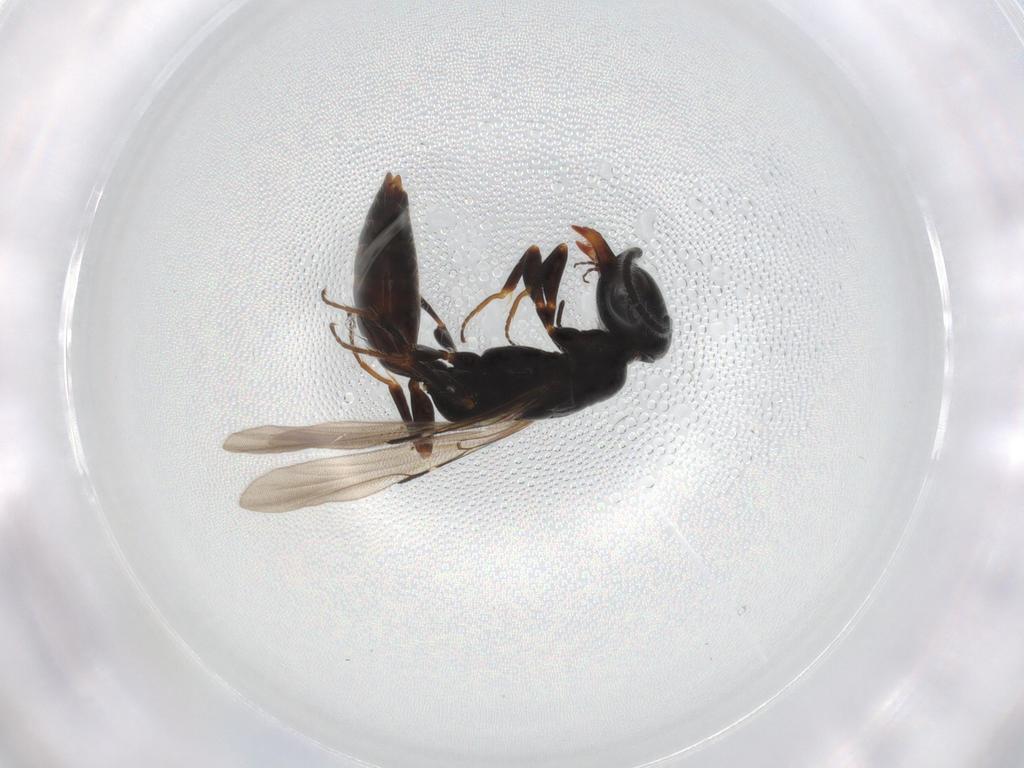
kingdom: Animalia
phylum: Arthropoda
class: Insecta
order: Hymenoptera
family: Bethylidae
